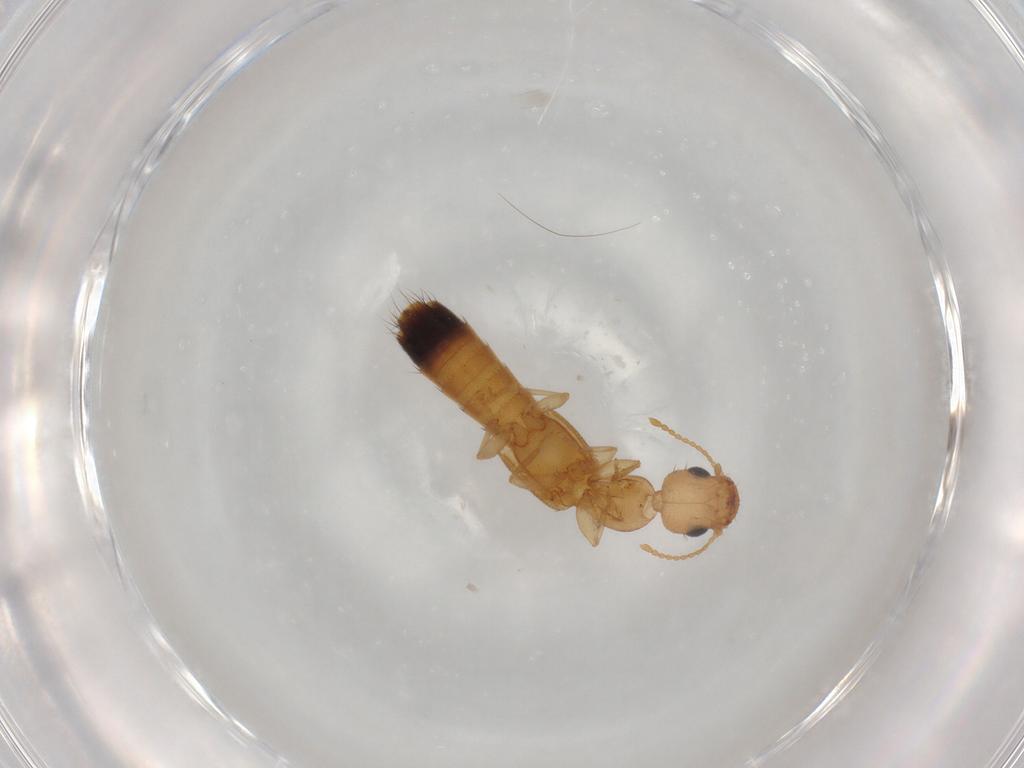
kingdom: Animalia
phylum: Arthropoda
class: Insecta
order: Coleoptera
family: Staphylinidae
